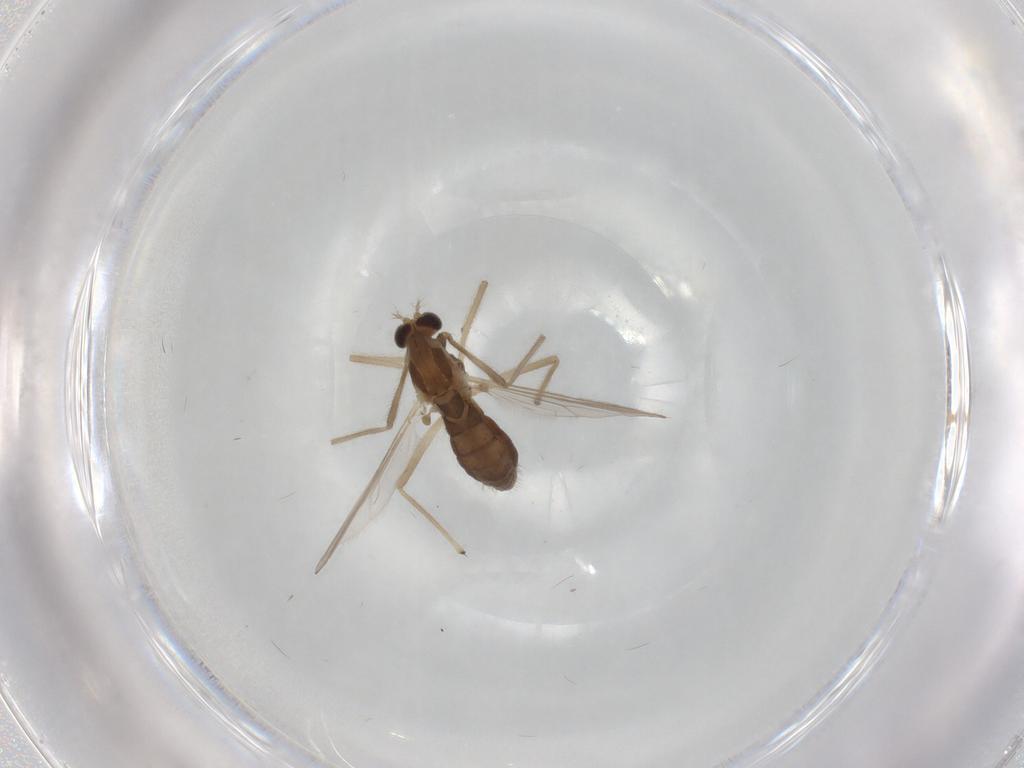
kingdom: Animalia
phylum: Arthropoda
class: Insecta
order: Diptera
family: Chironomidae
